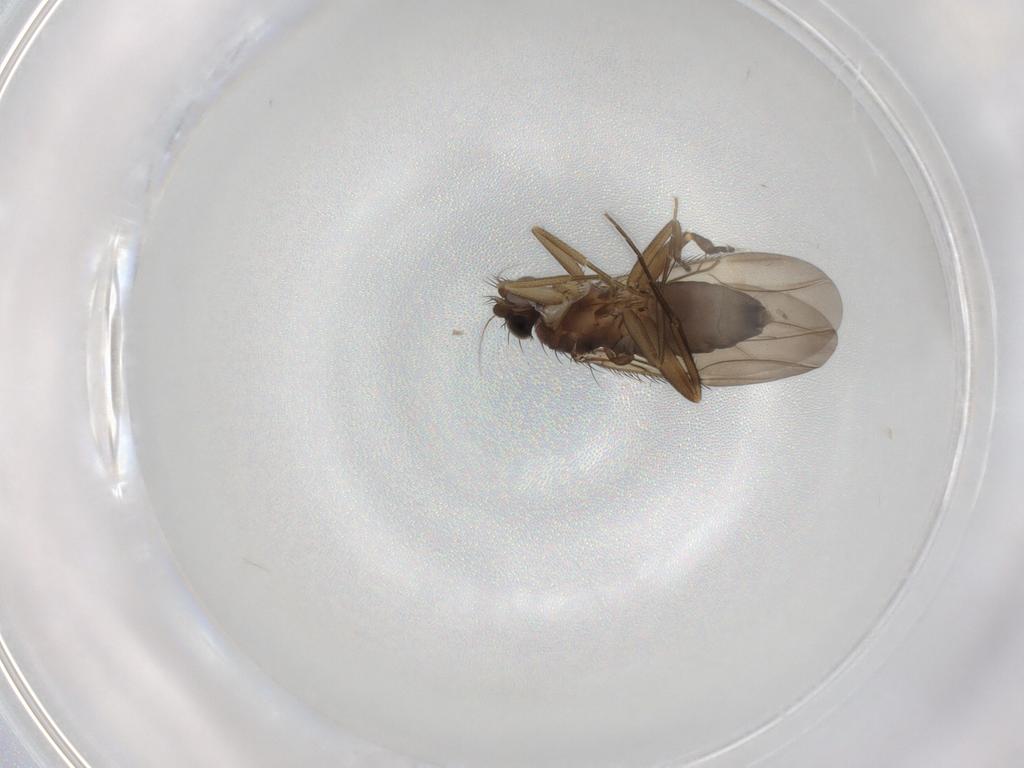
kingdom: Animalia
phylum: Arthropoda
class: Insecta
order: Diptera
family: Phoridae
